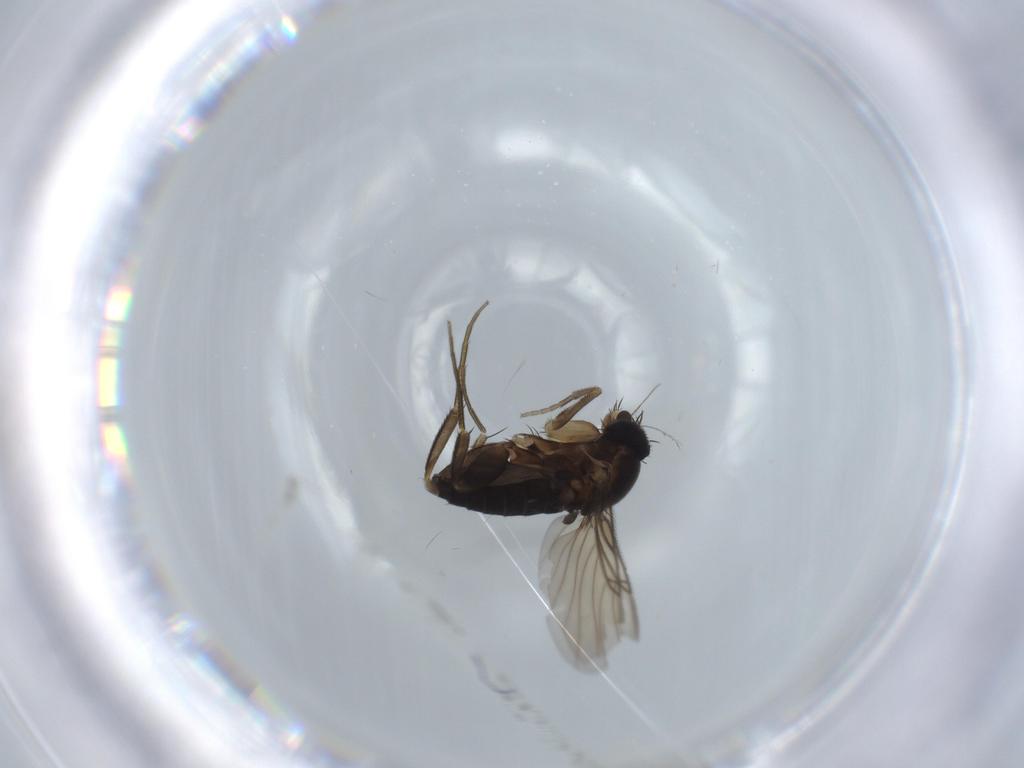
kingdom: Animalia
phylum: Arthropoda
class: Insecta
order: Diptera
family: Phoridae
